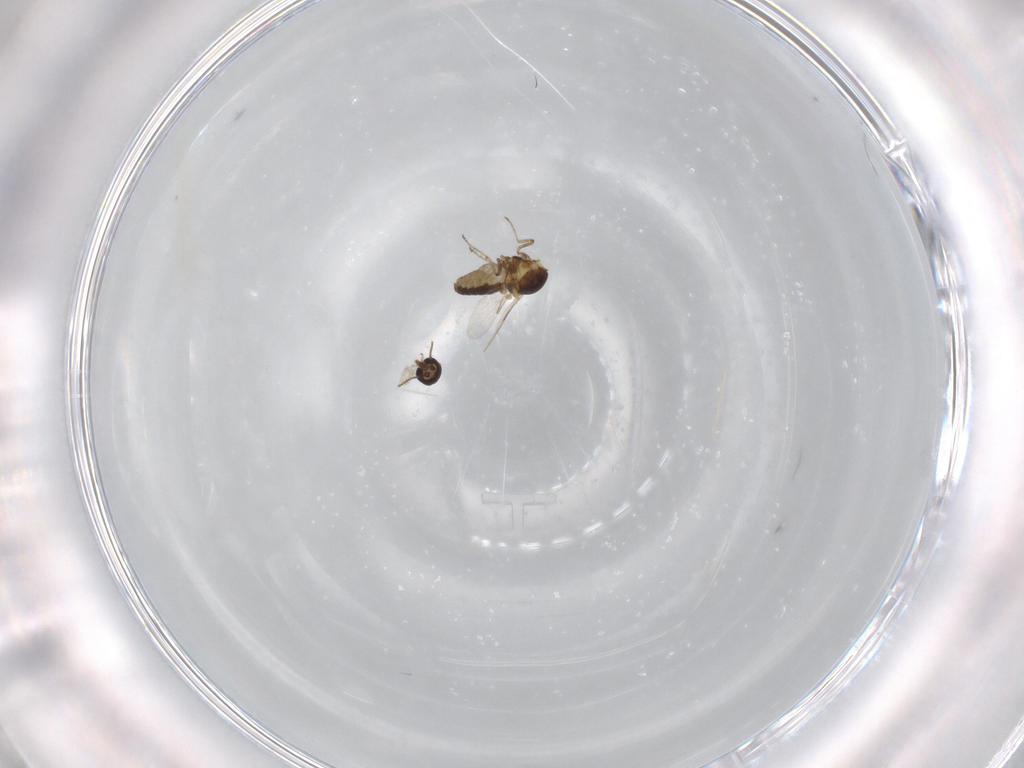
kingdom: Animalia
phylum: Arthropoda
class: Insecta
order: Diptera
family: Ceratopogonidae
